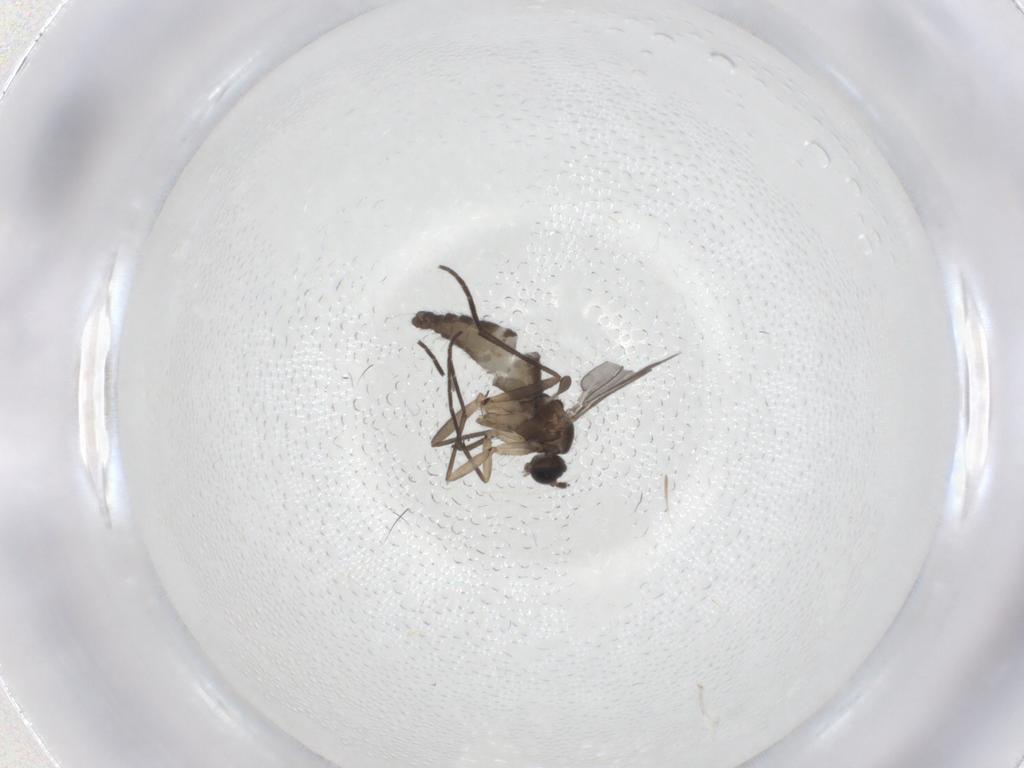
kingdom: Animalia
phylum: Arthropoda
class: Insecta
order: Diptera
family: Sciaridae
